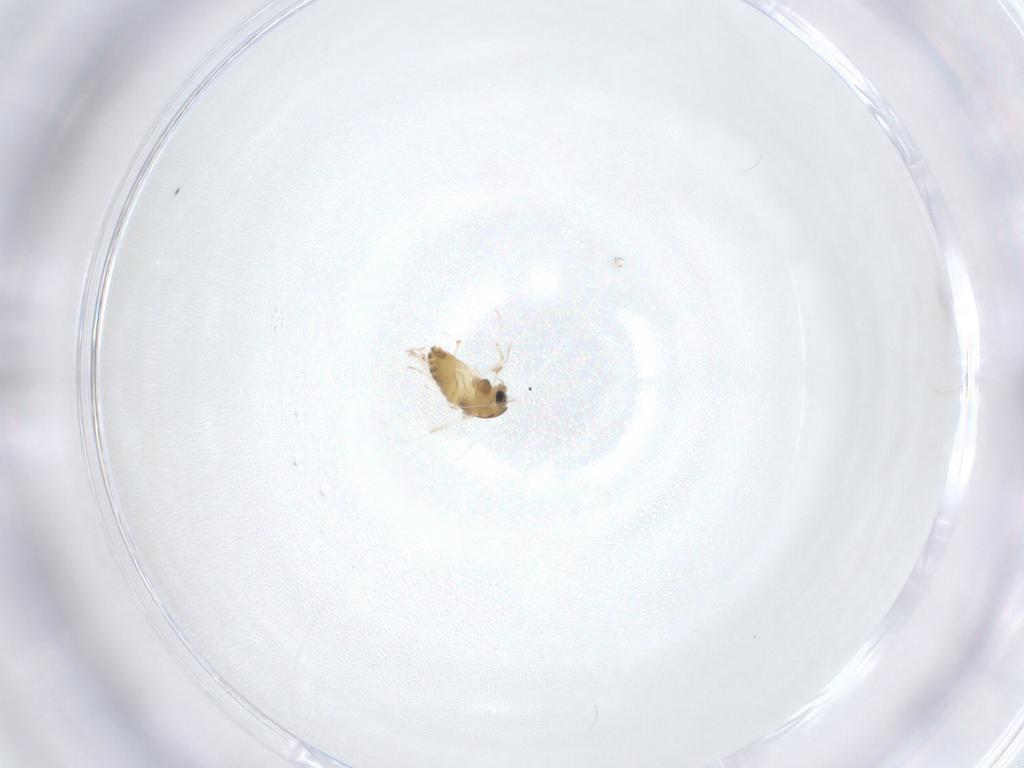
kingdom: Animalia
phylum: Arthropoda
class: Insecta
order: Diptera
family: Chironomidae
